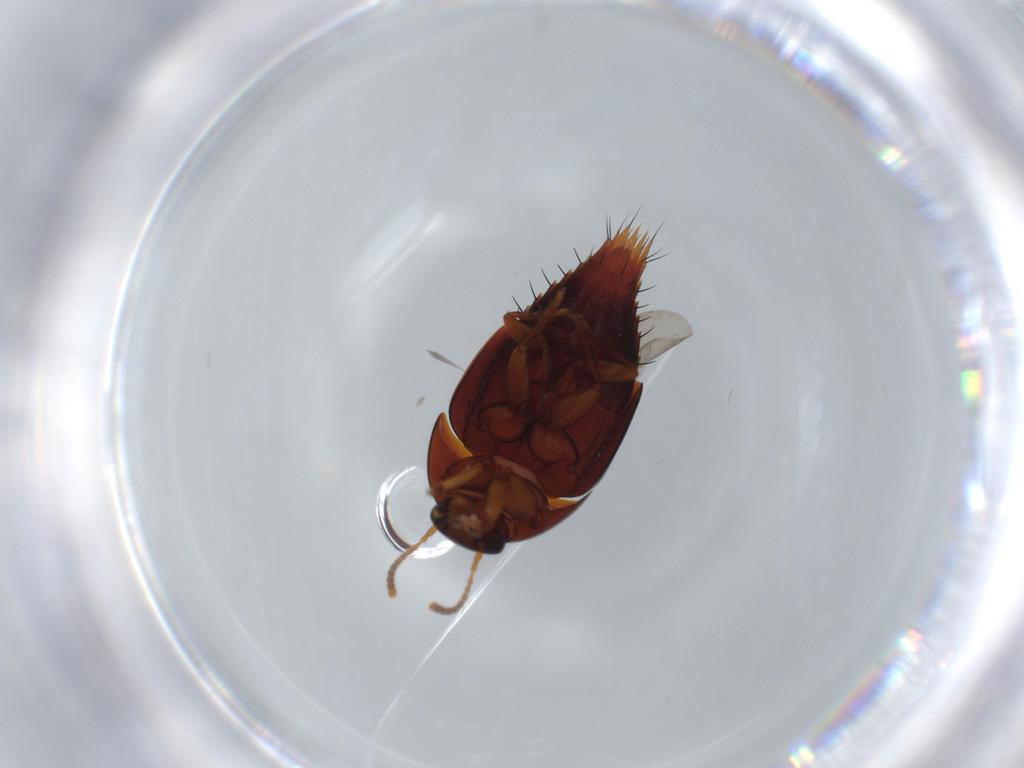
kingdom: Animalia
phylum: Arthropoda
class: Insecta
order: Coleoptera
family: Staphylinidae
